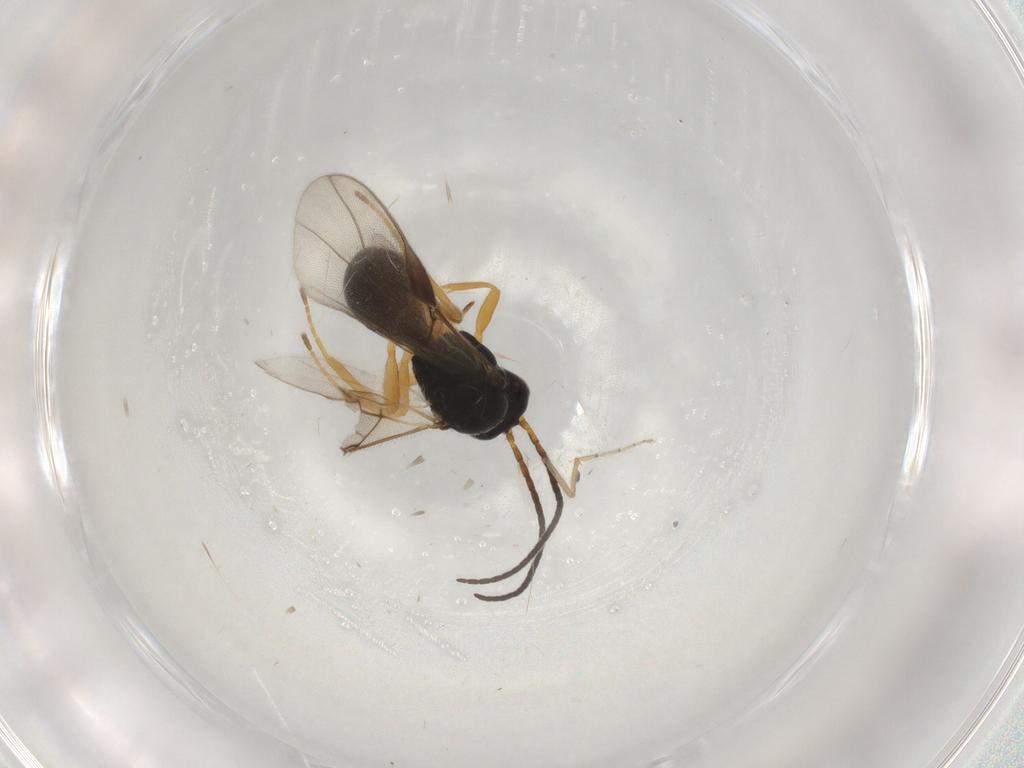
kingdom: Animalia
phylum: Arthropoda
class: Insecta
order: Hymenoptera
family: Braconidae
